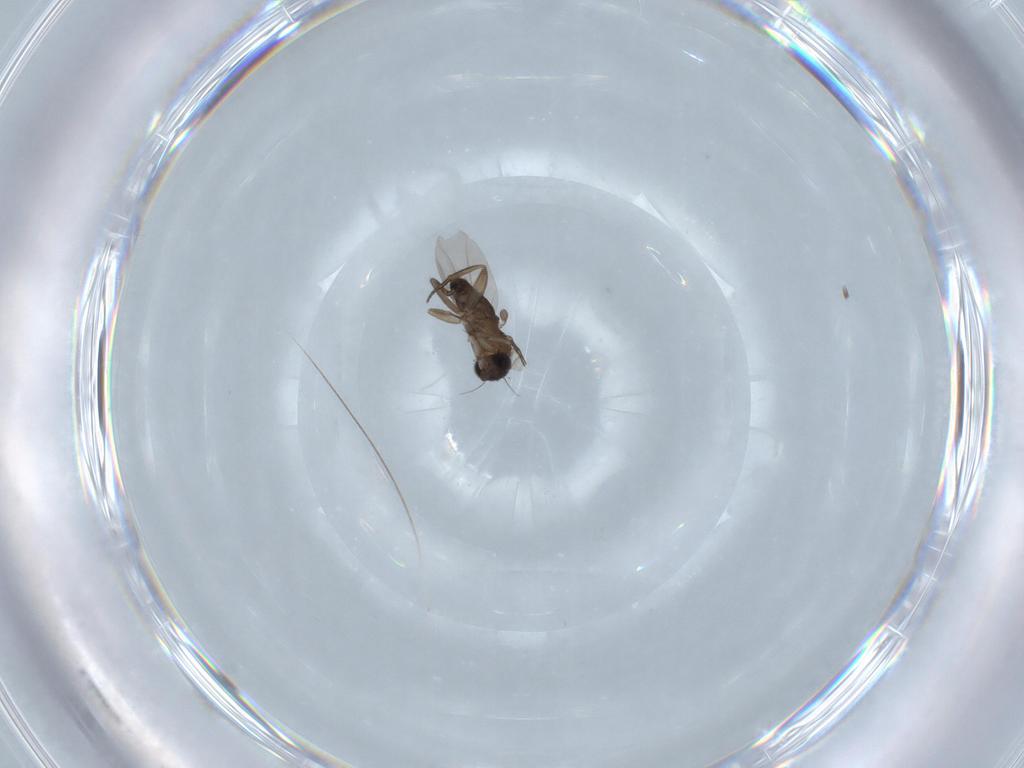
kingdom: Animalia
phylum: Arthropoda
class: Insecta
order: Diptera
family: Phoridae
